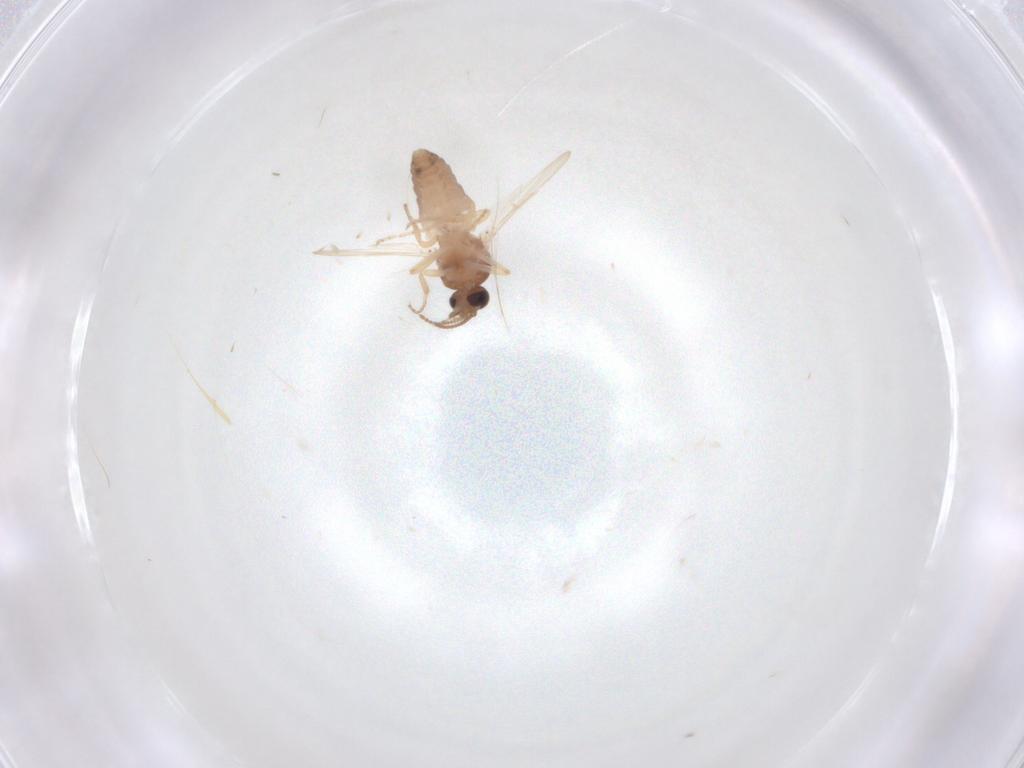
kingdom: Animalia
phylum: Arthropoda
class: Insecta
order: Diptera
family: Ceratopogonidae
